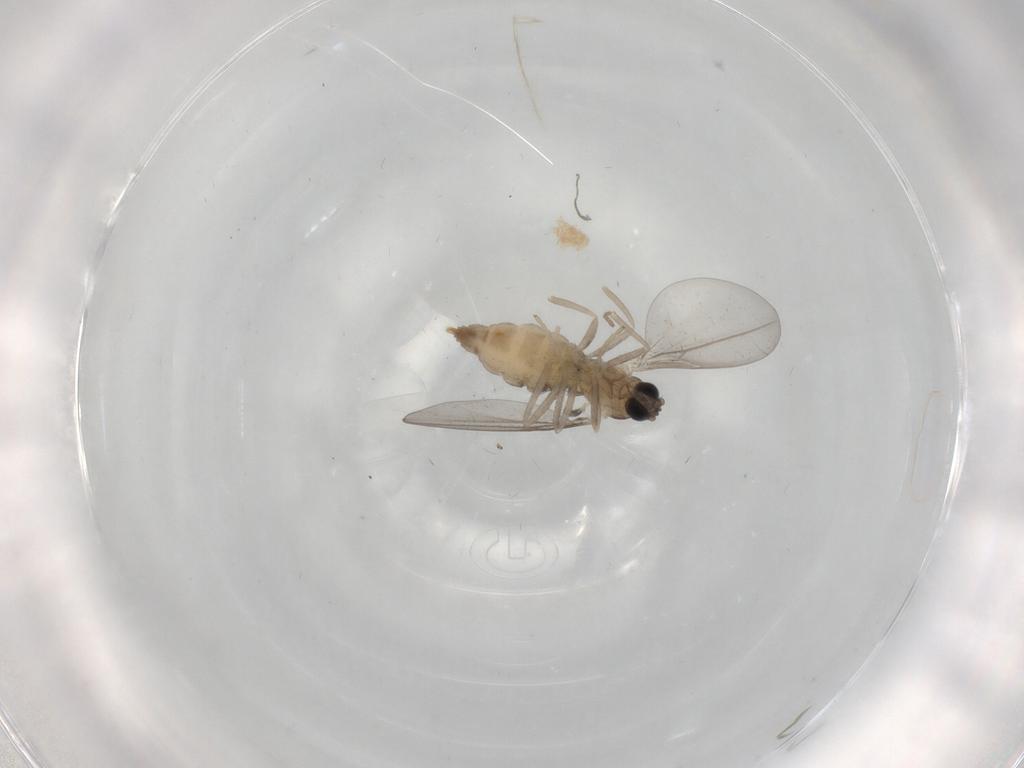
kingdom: Animalia
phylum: Arthropoda
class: Insecta
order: Diptera
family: Cecidomyiidae
